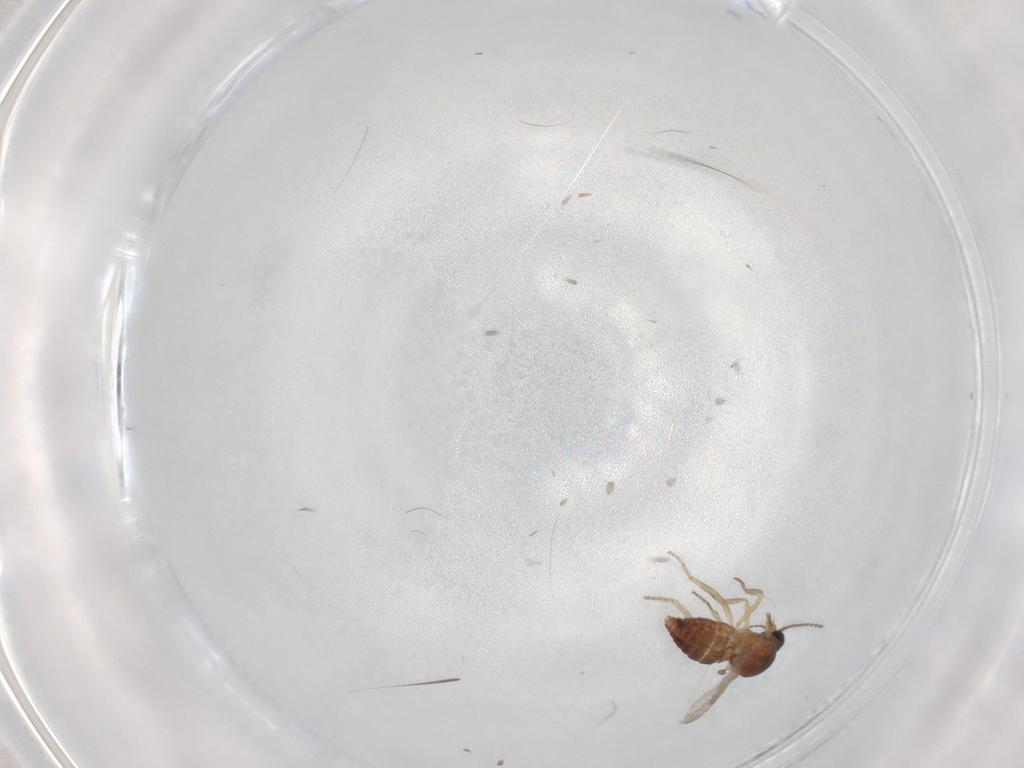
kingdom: Animalia
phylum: Arthropoda
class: Insecta
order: Diptera
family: Ceratopogonidae
